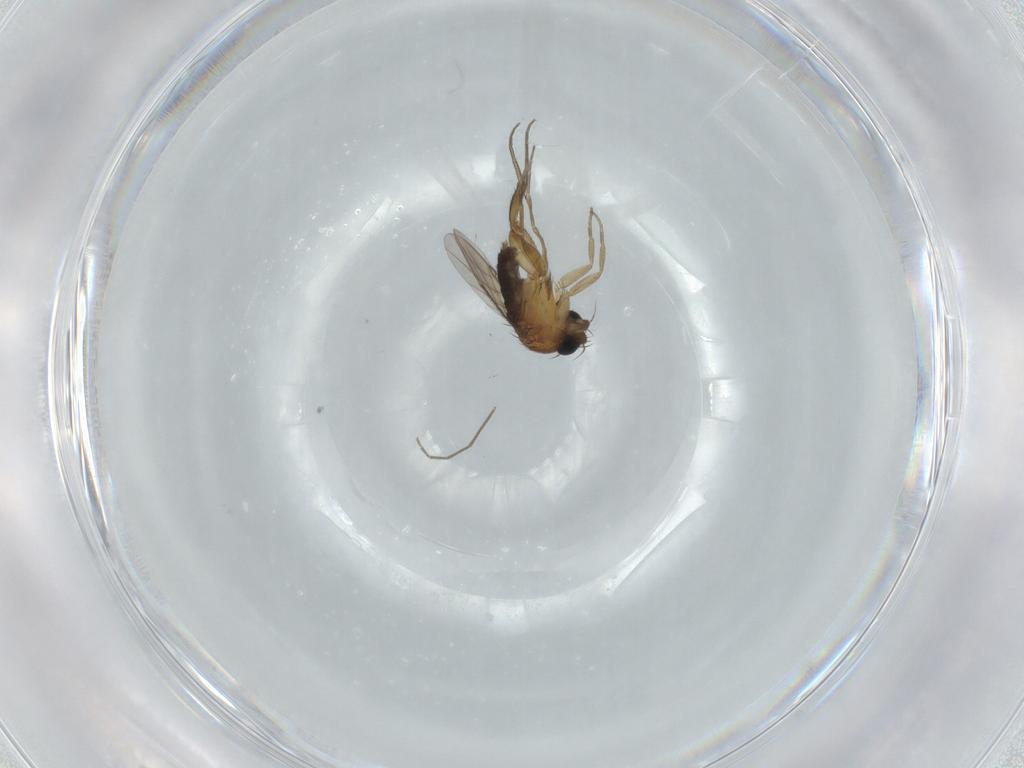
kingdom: Animalia
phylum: Arthropoda
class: Insecta
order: Diptera
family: Phoridae
